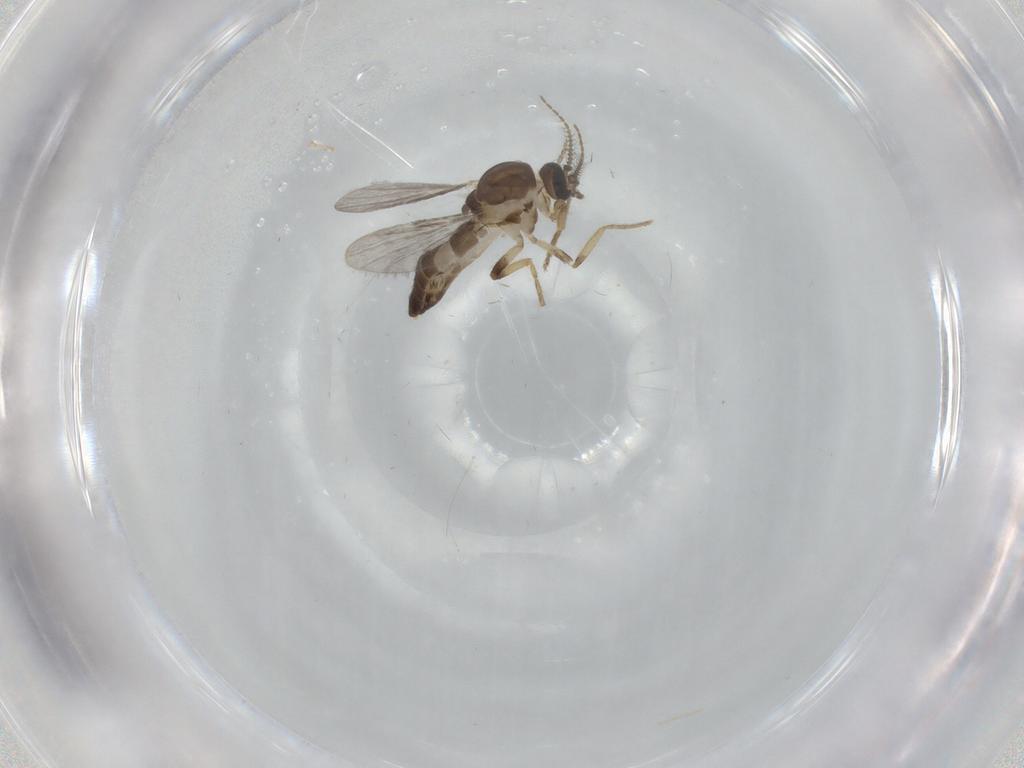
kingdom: Animalia
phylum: Arthropoda
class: Insecta
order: Diptera
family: Ceratopogonidae
